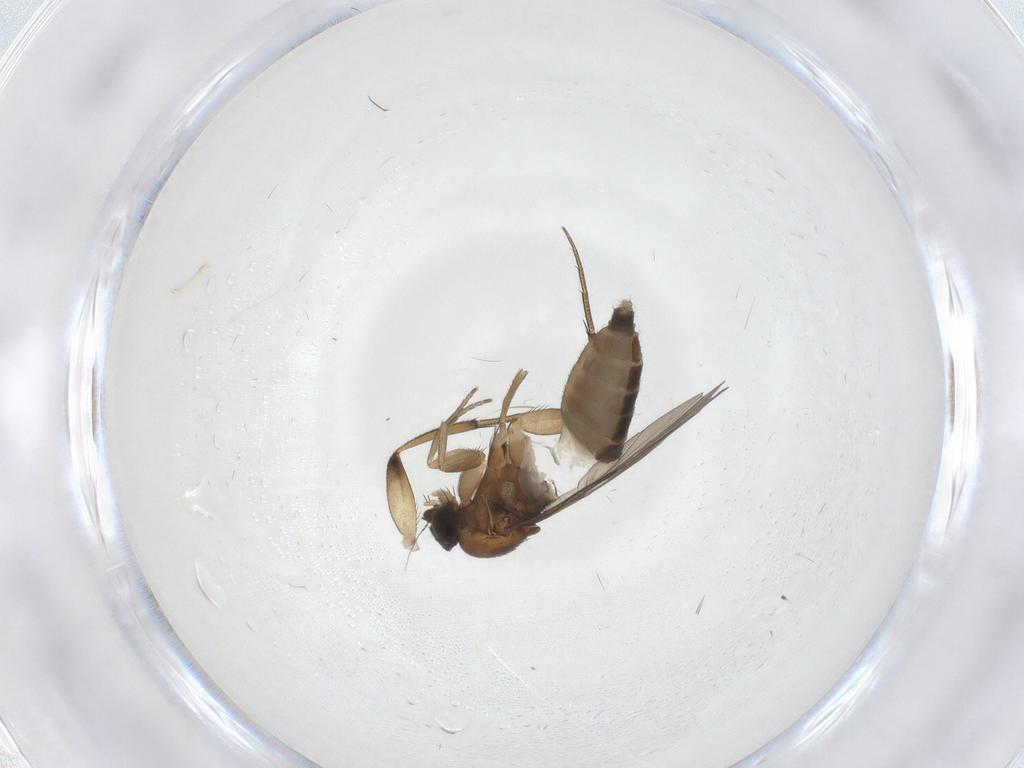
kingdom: Animalia
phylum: Arthropoda
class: Insecta
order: Diptera
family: Phoridae
